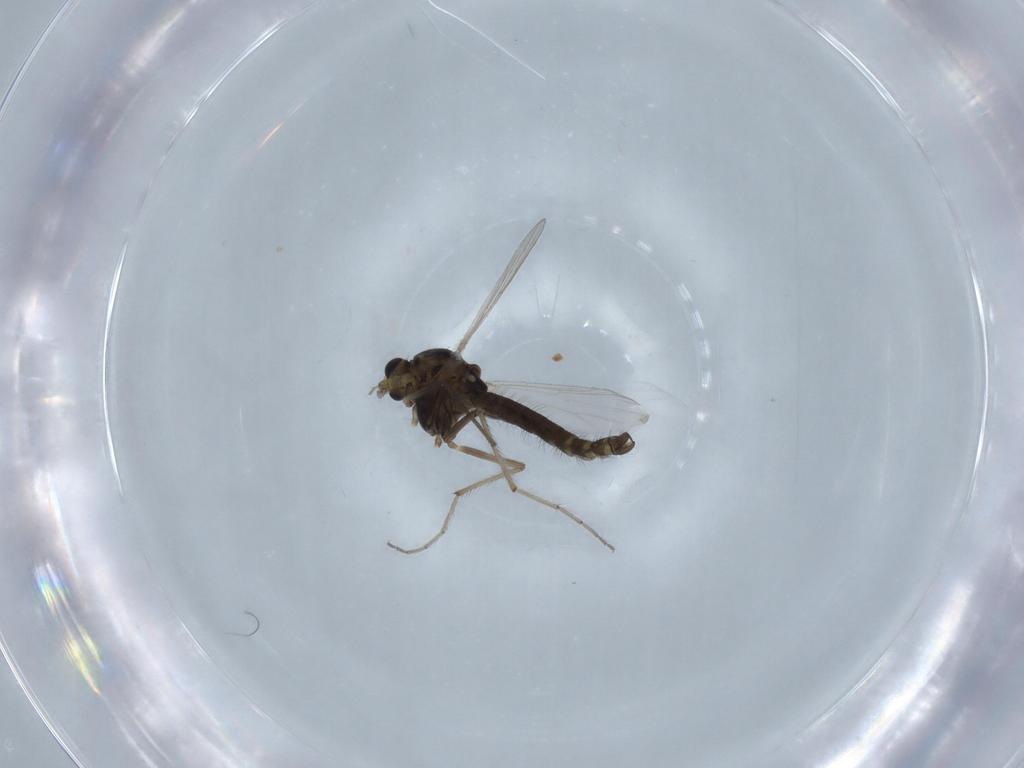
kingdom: Animalia
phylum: Arthropoda
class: Insecta
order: Diptera
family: Chironomidae
